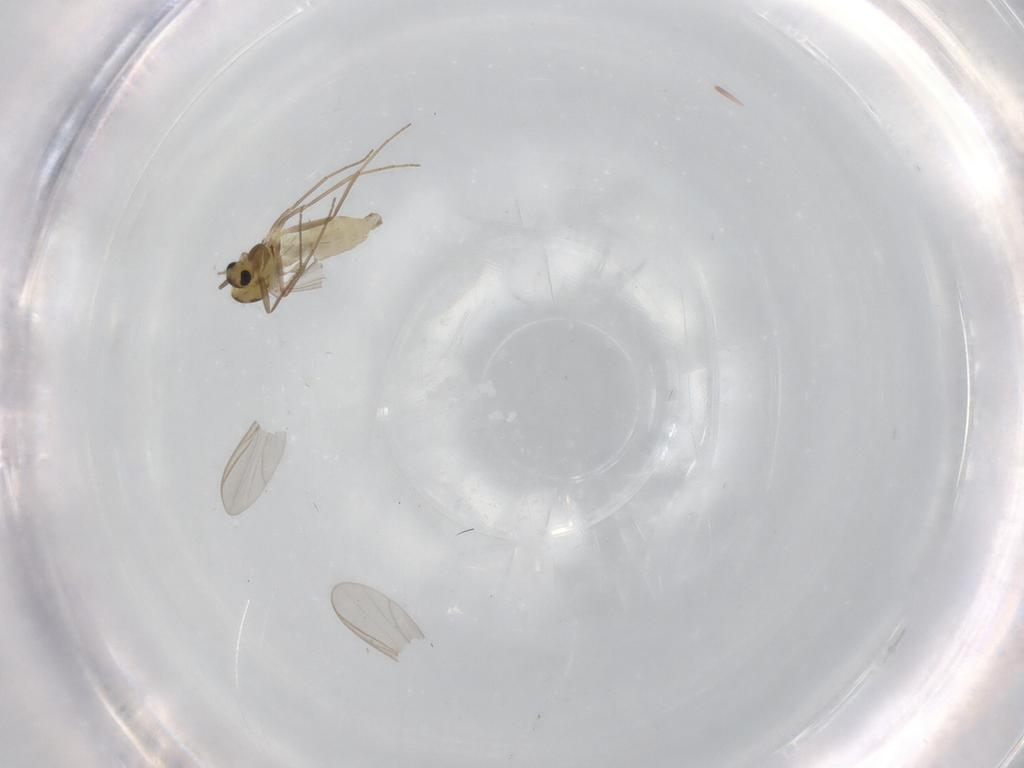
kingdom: Animalia
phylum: Arthropoda
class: Insecta
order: Diptera
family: Chironomidae
